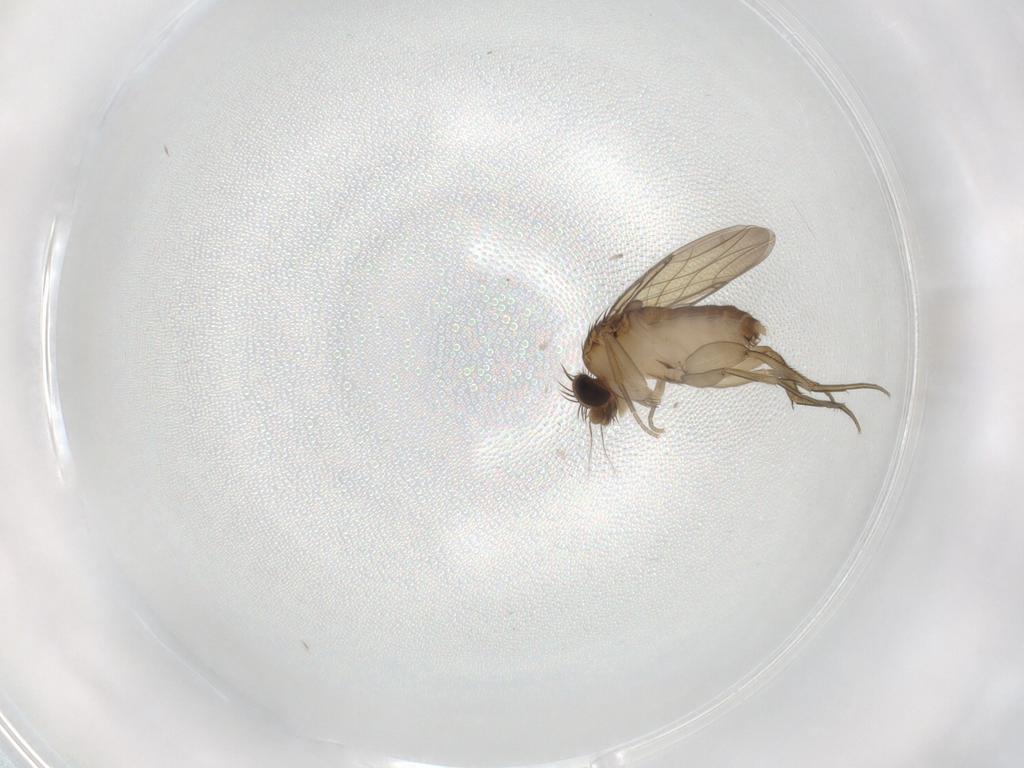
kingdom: Animalia
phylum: Arthropoda
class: Insecta
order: Diptera
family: Phoridae
